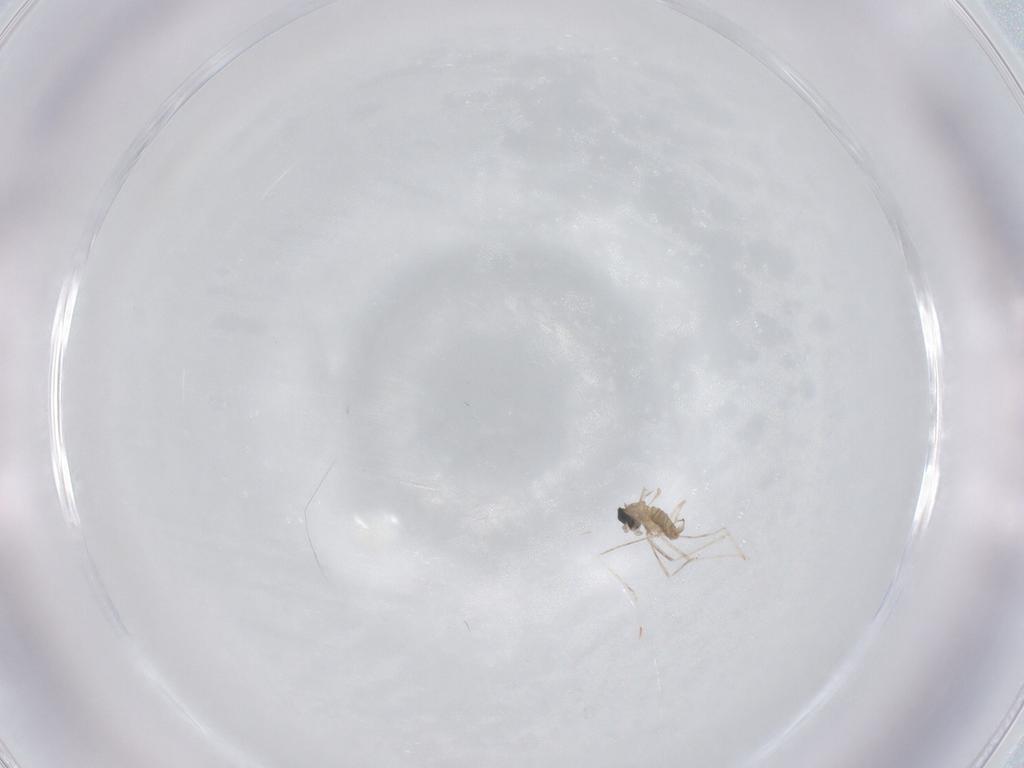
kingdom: Animalia
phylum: Arthropoda
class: Insecta
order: Diptera
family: Cecidomyiidae
